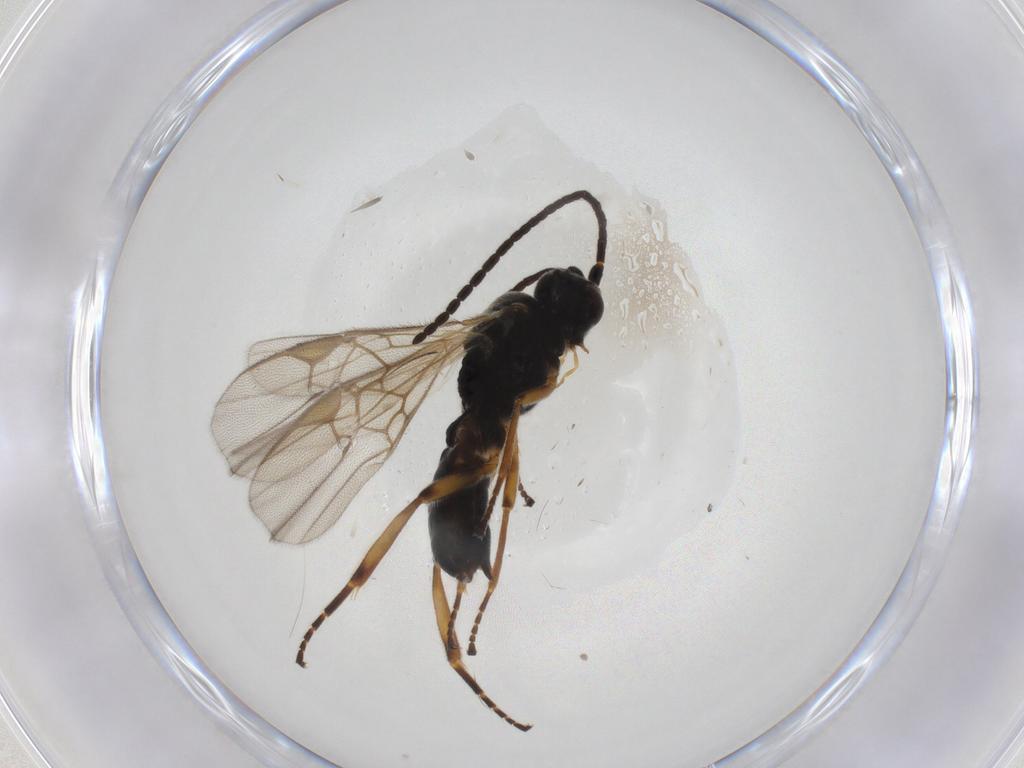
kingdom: Animalia
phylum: Arthropoda
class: Insecta
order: Hymenoptera
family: Braconidae
